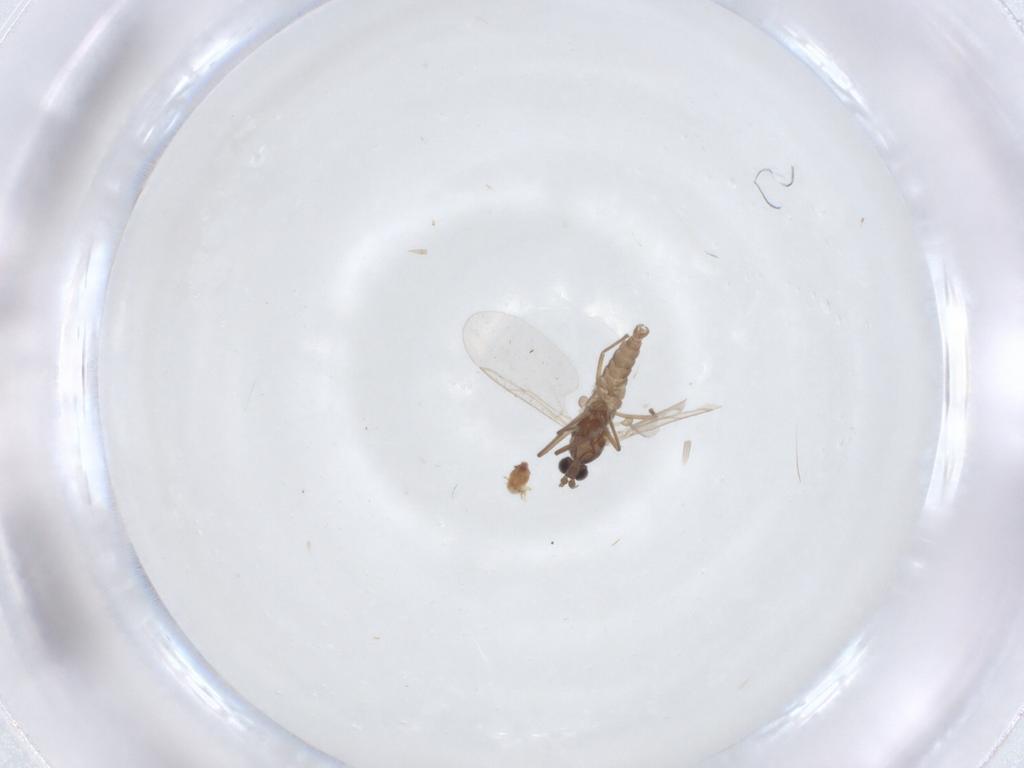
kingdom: Animalia
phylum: Arthropoda
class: Insecta
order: Diptera
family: Cecidomyiidae
